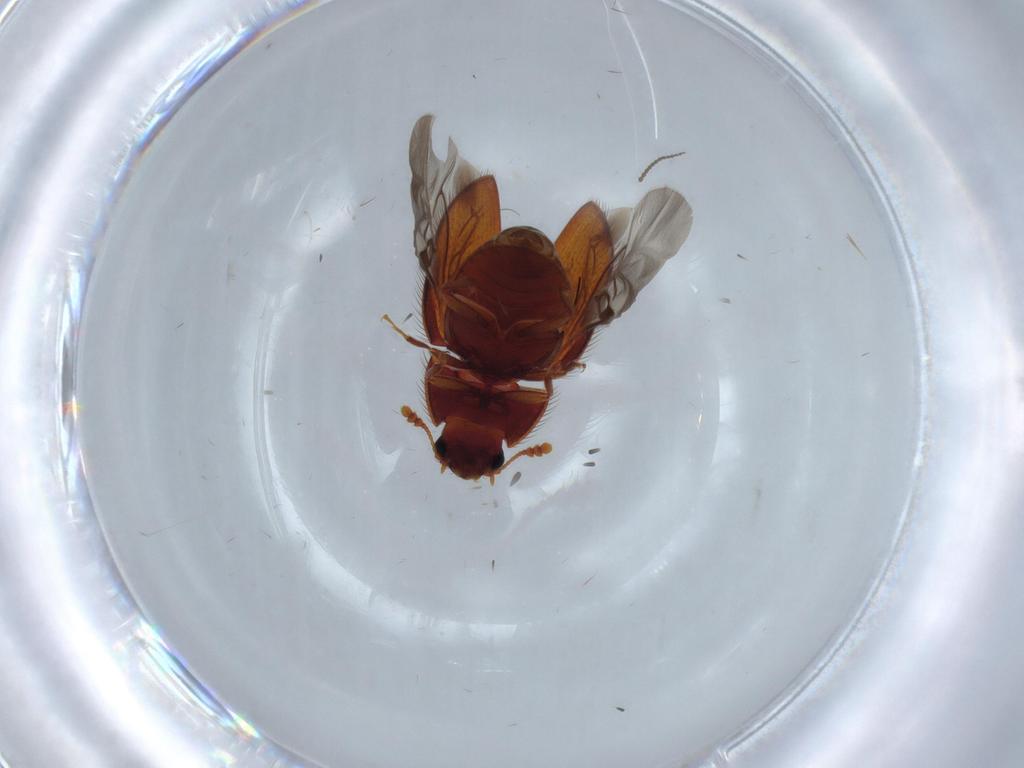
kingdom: Animalia
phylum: Arthropoda
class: Insecta
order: Coleoptera
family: Biphyllidae
